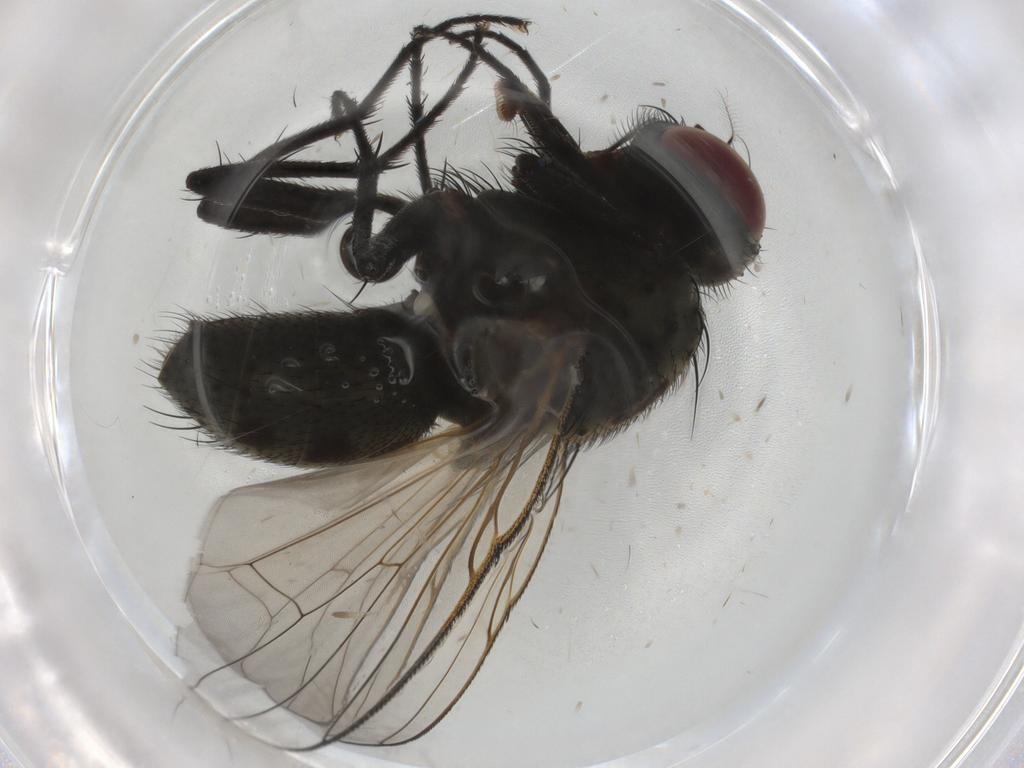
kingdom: Animalia
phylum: Arthropoda
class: Insecta
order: Diptera
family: Muscidae
